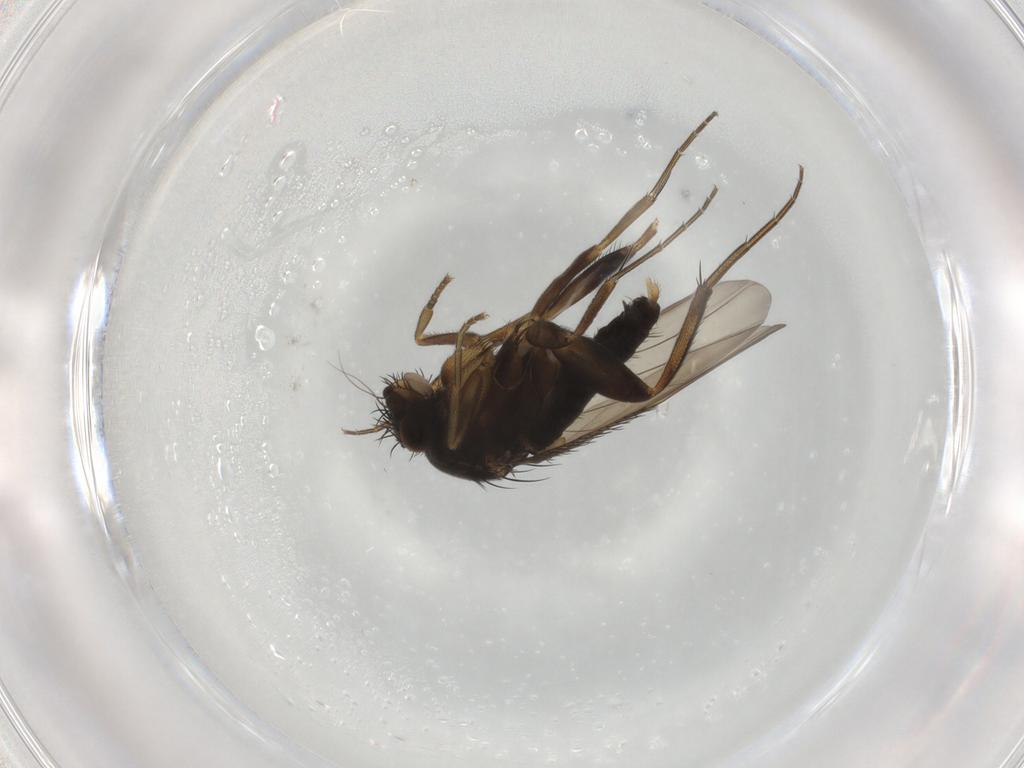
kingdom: Animalia
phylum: Arthropoda
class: Insecta
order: Diptera
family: Phoridae
